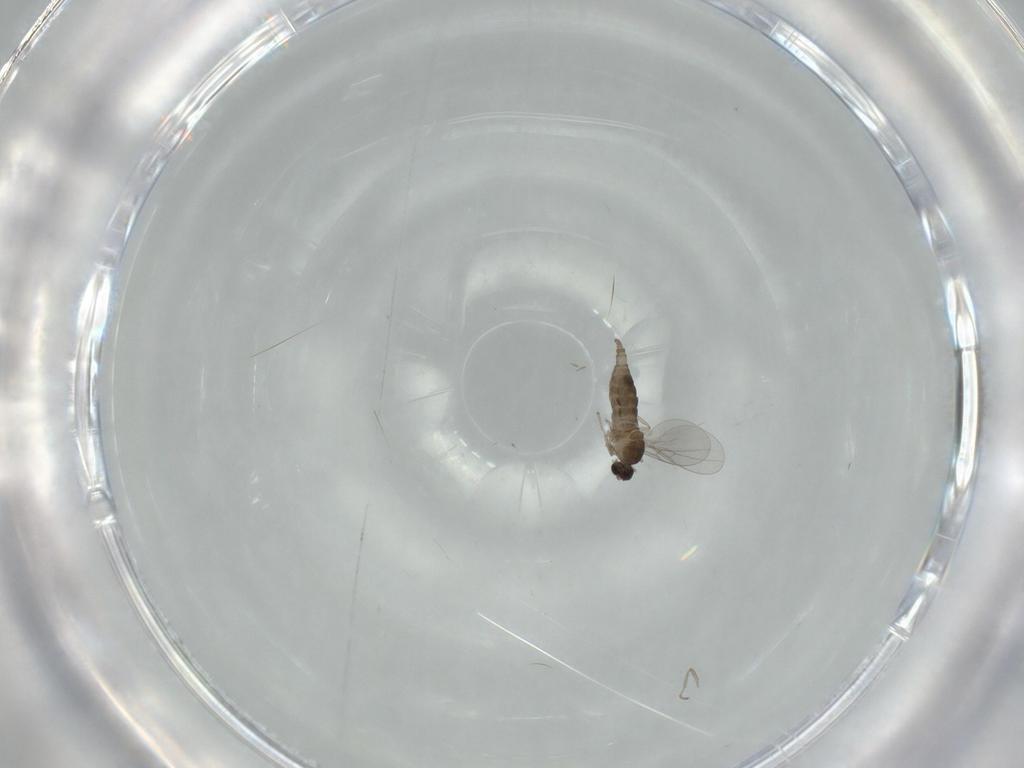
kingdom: Animalia
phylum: Arthropoda
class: Insecta
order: Diptera
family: Cecidomyiidae
